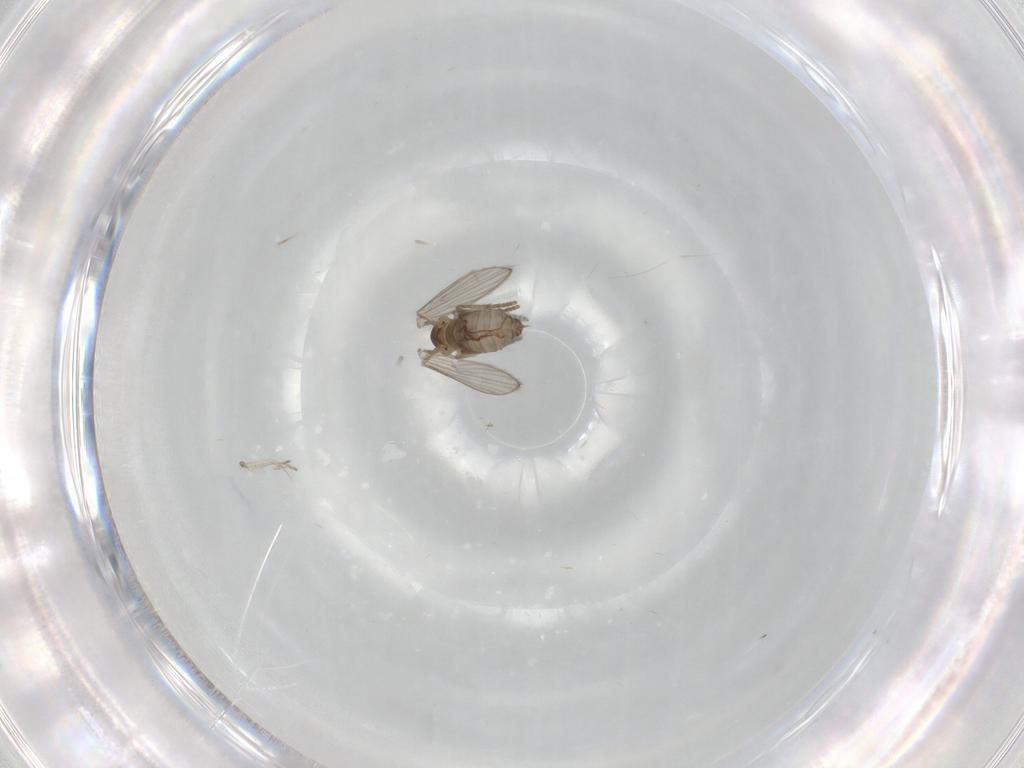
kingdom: Animalia
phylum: Arthropoda
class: Insecta
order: Diptera
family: Psychodidae
